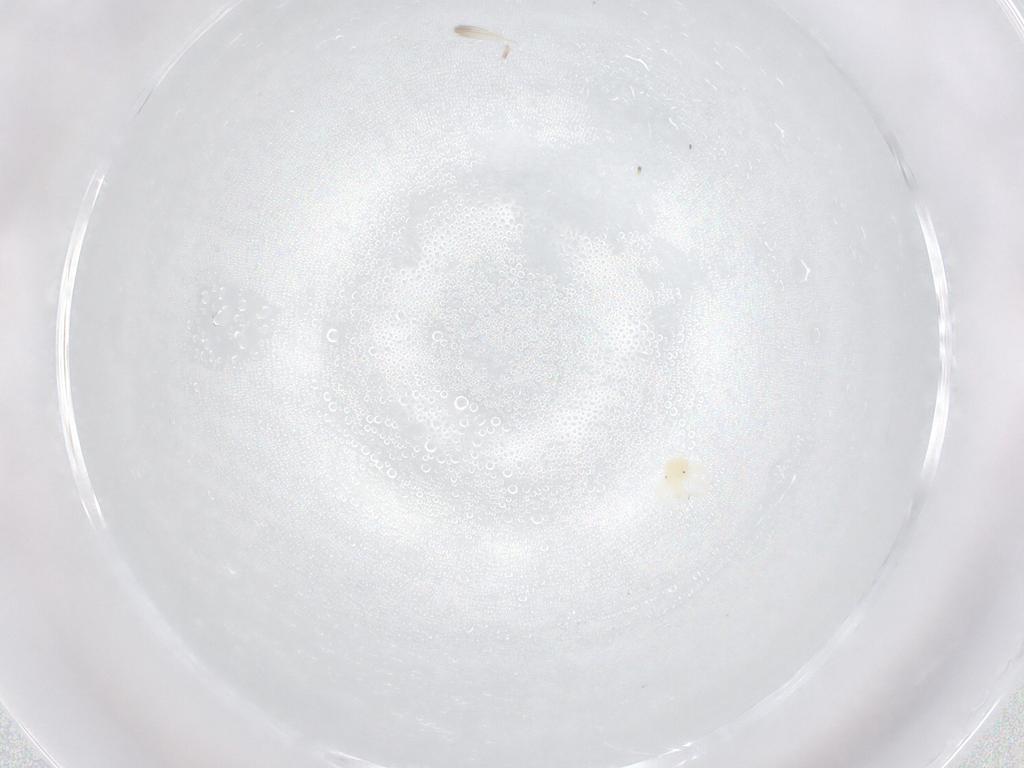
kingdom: Animalia
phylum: Arthropoda
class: Arachnida
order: Trombidiformes
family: Anystidae
